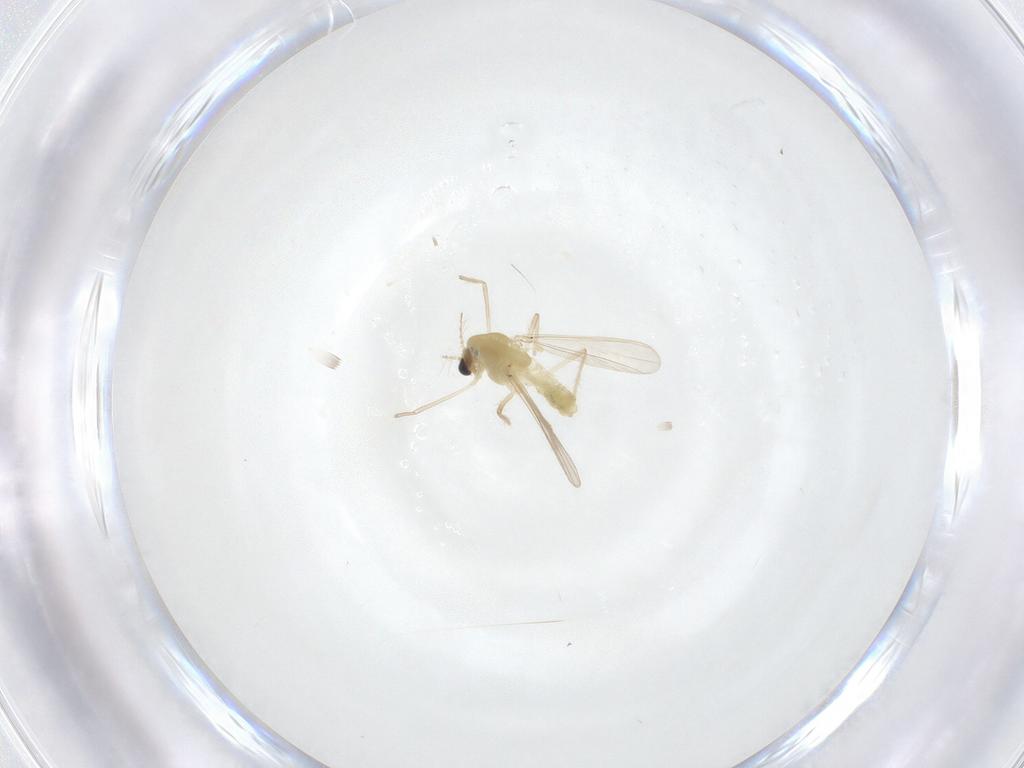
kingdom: Animalia
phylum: Arthropoda
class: Insecta
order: Diptera
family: Chironomidae
